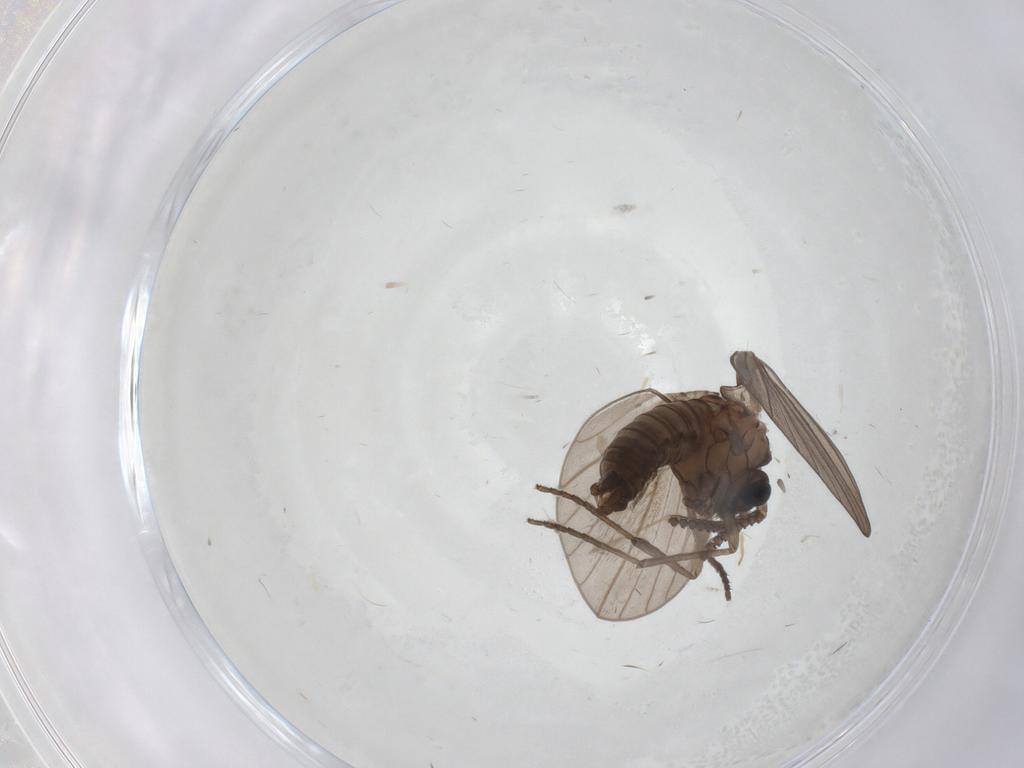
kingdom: Animalia
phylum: Arthropoda
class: Insecta
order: Diptera
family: Psychodidae
